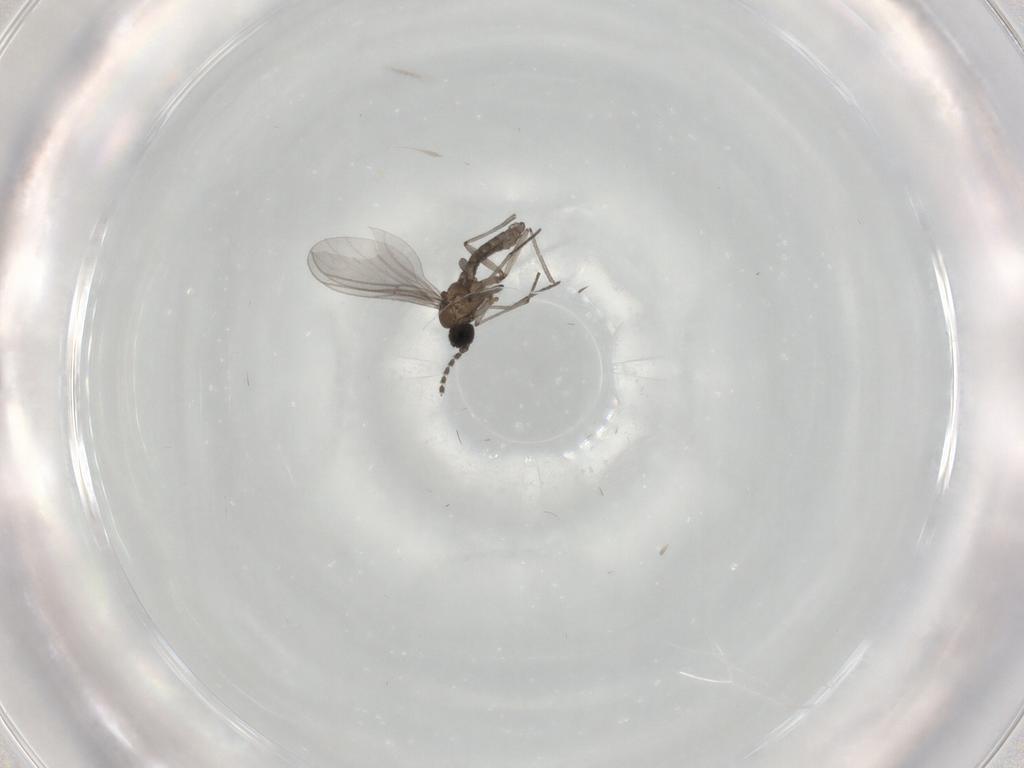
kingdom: Animalia
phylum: Arthropoda
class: Insecta
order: Diptera
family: Sciaridae
